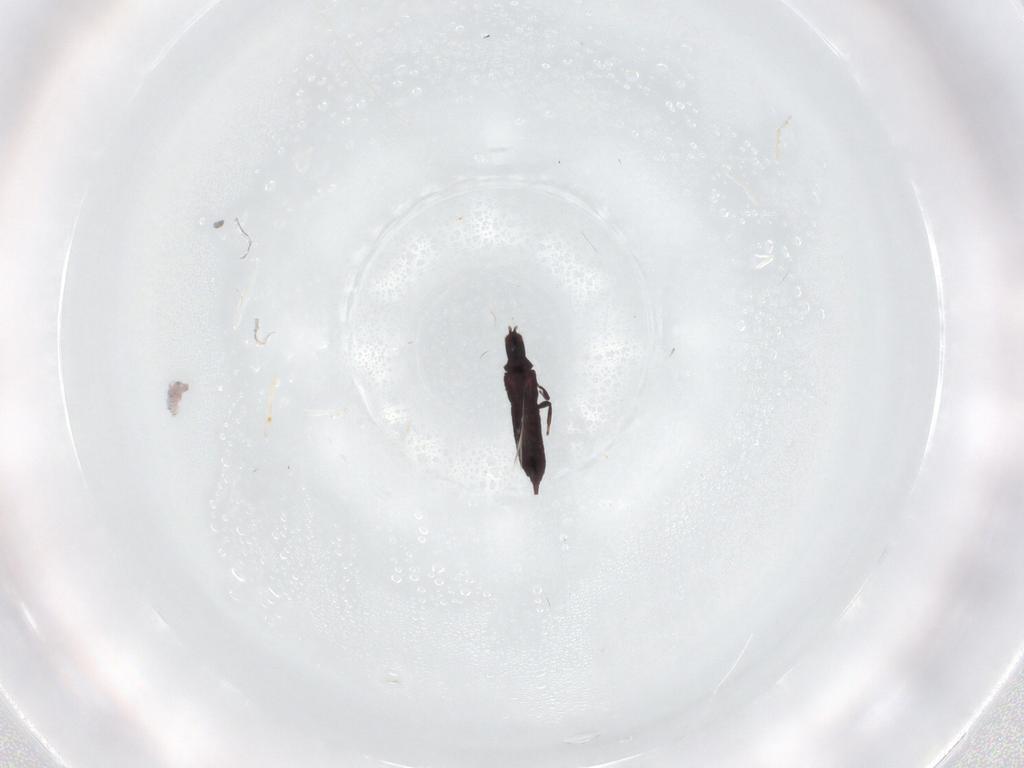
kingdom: Animalia
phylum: Arthropoda
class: Insecta
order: Thysanoptera
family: Phlaeothripidae
